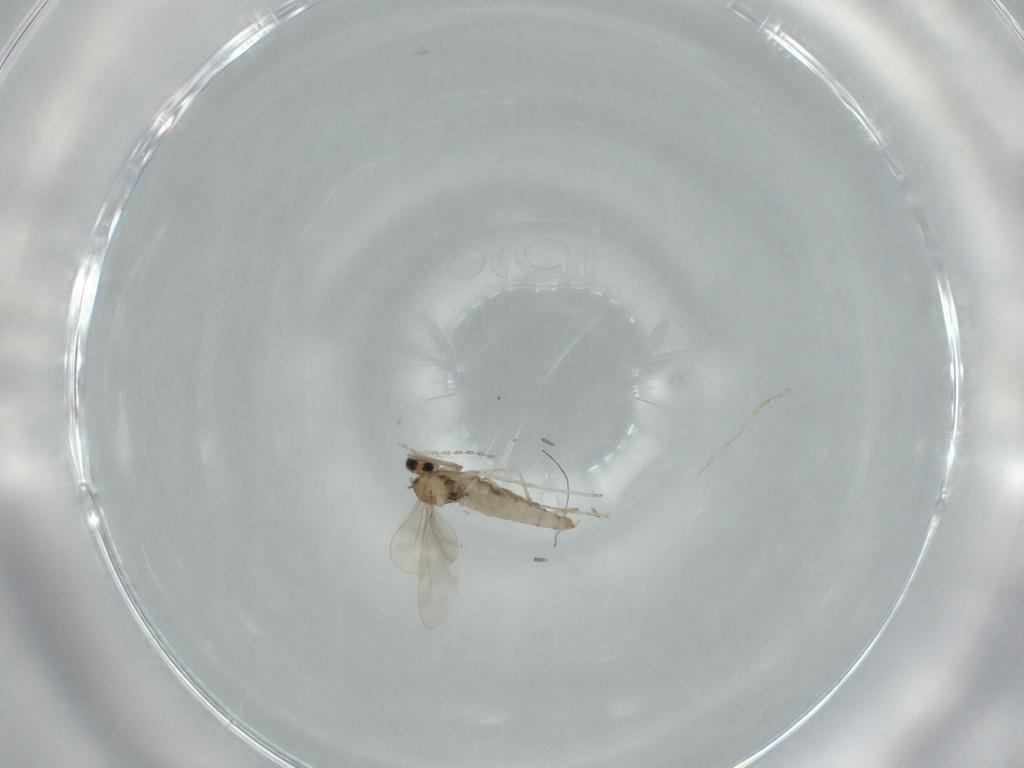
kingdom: Animalia
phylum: Arthropoda
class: Insecta
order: Diptera
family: Cecidomyiidae
